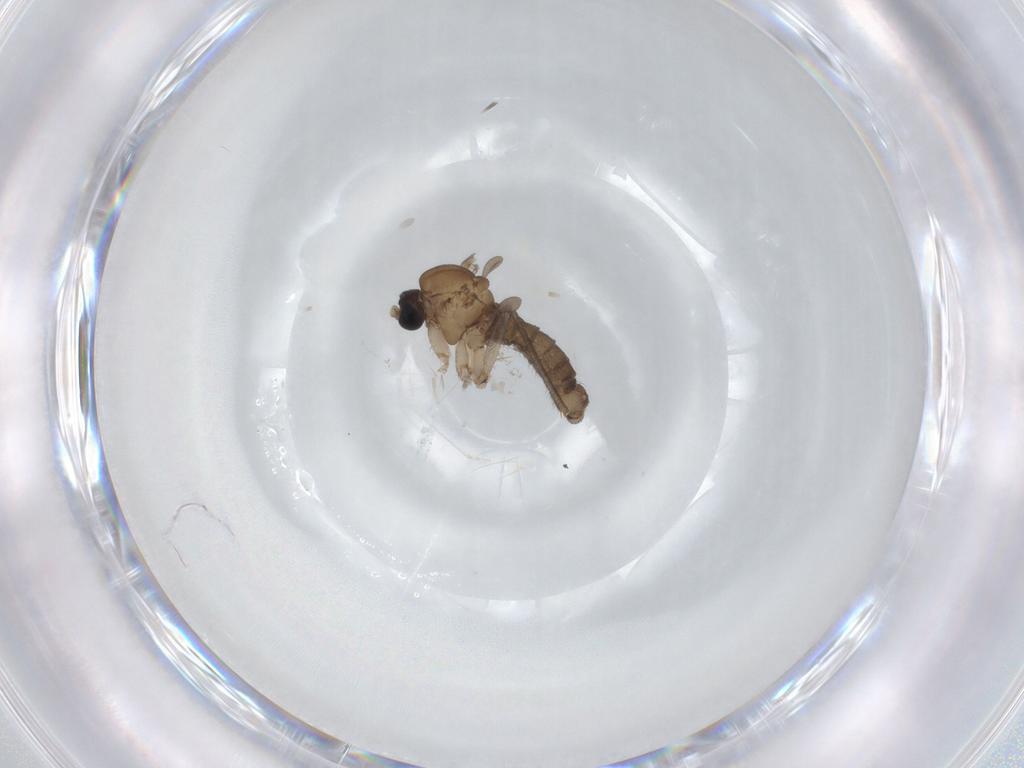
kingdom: Animalia
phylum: Arthropoda
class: Insecta
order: Diptera
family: Sciaridae
